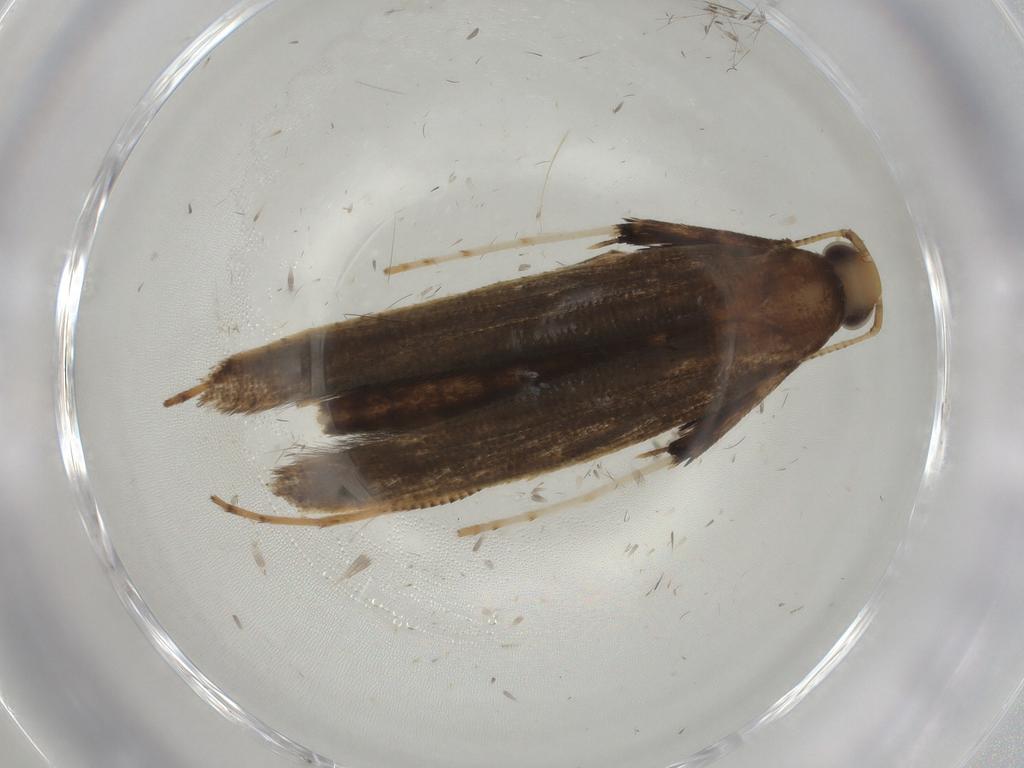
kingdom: Animalia
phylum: Arthropoda
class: Insecta
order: Lepidoptera
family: Gracillariidae
